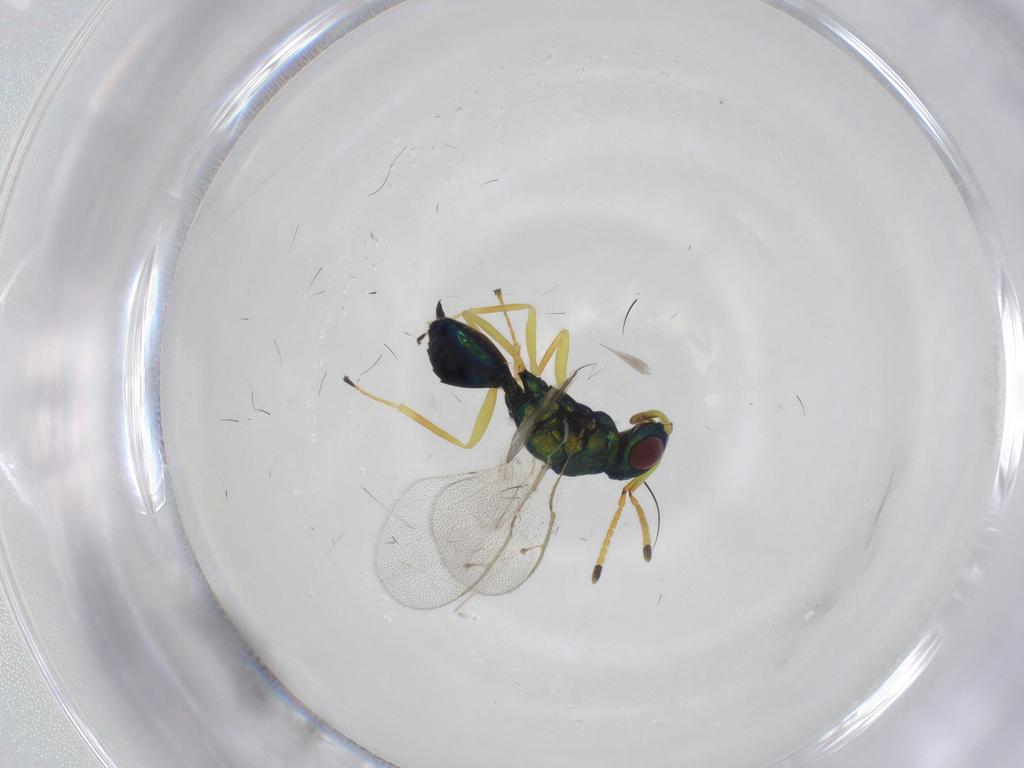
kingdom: Animalia
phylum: Arthropoda
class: Insecta
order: Hymenoptera
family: Pteromalidae
